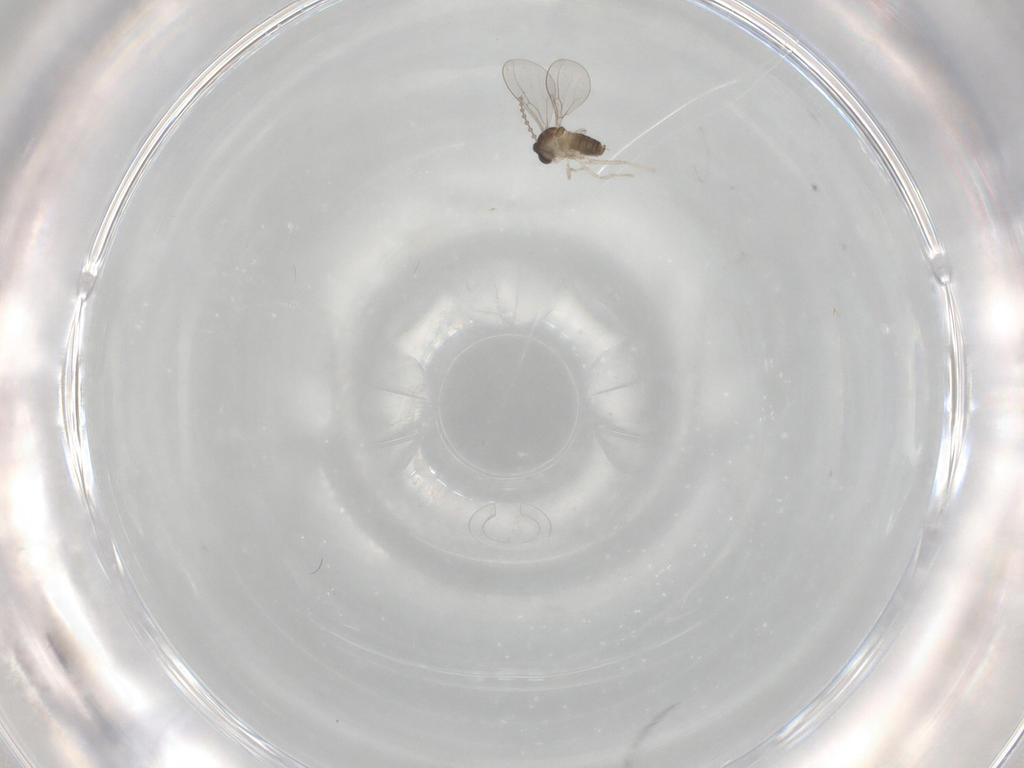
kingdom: Animalia
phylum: Arthropoda
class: Insecta
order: Diptera
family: Cecidomyiidae
